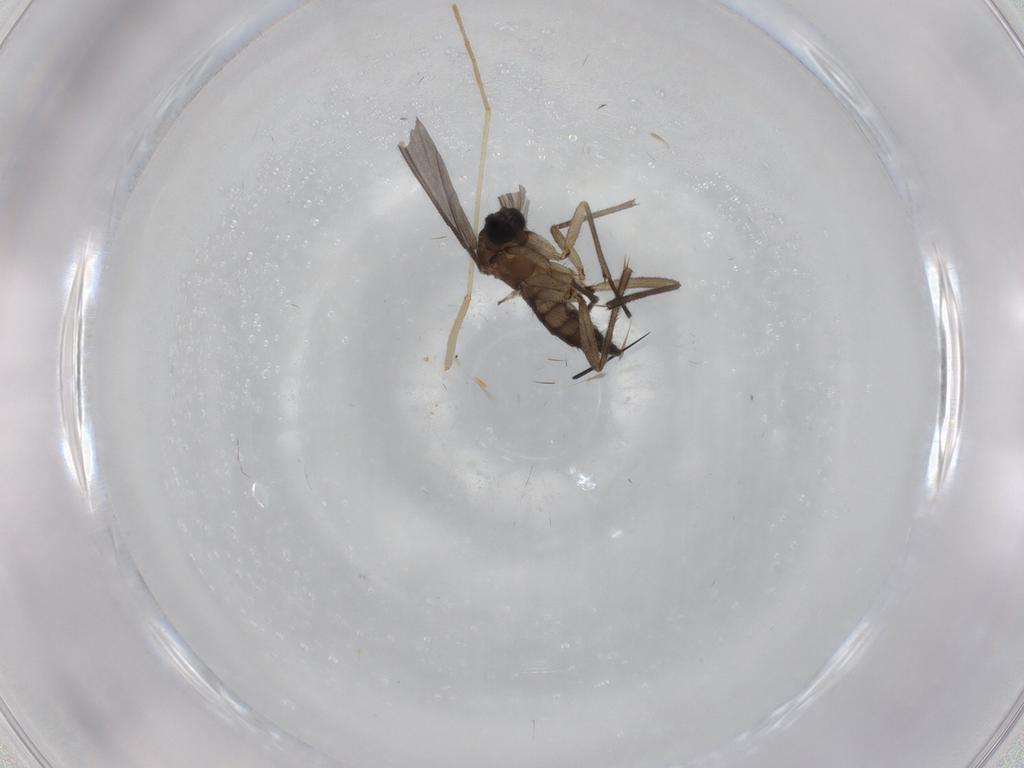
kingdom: Animalia
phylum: Arthropoda
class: Insecta
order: Diptera
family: Sciaridae
